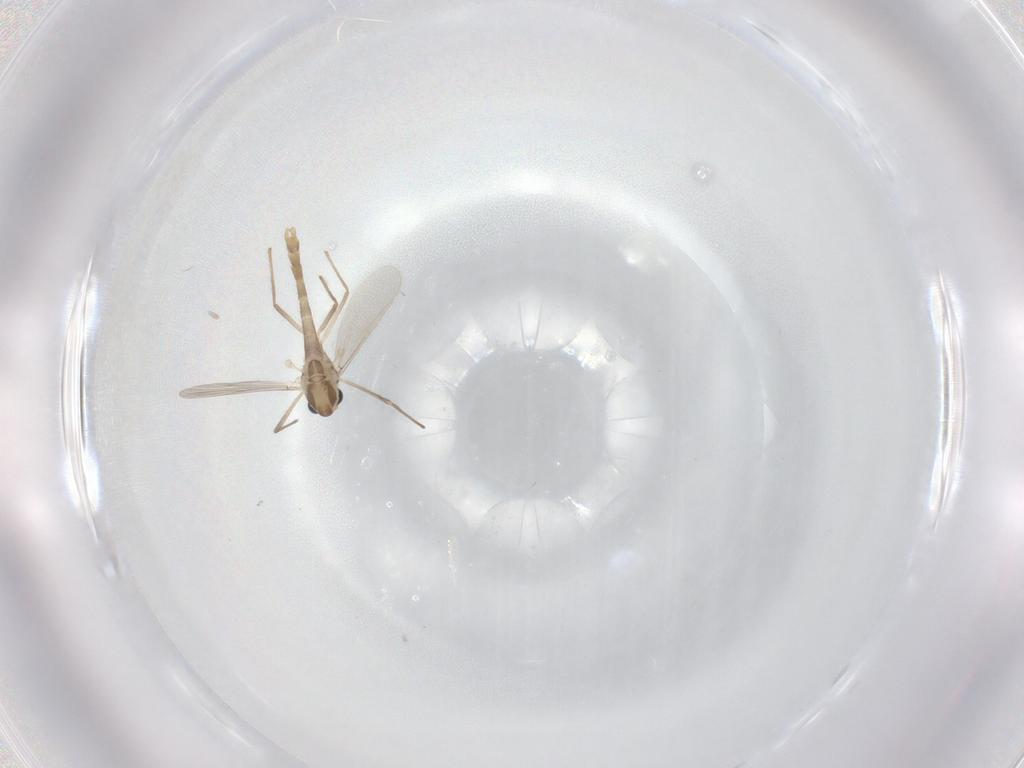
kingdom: Animalia
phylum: Arthropoda
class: Insecta
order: Diptera
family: Chironomidae
